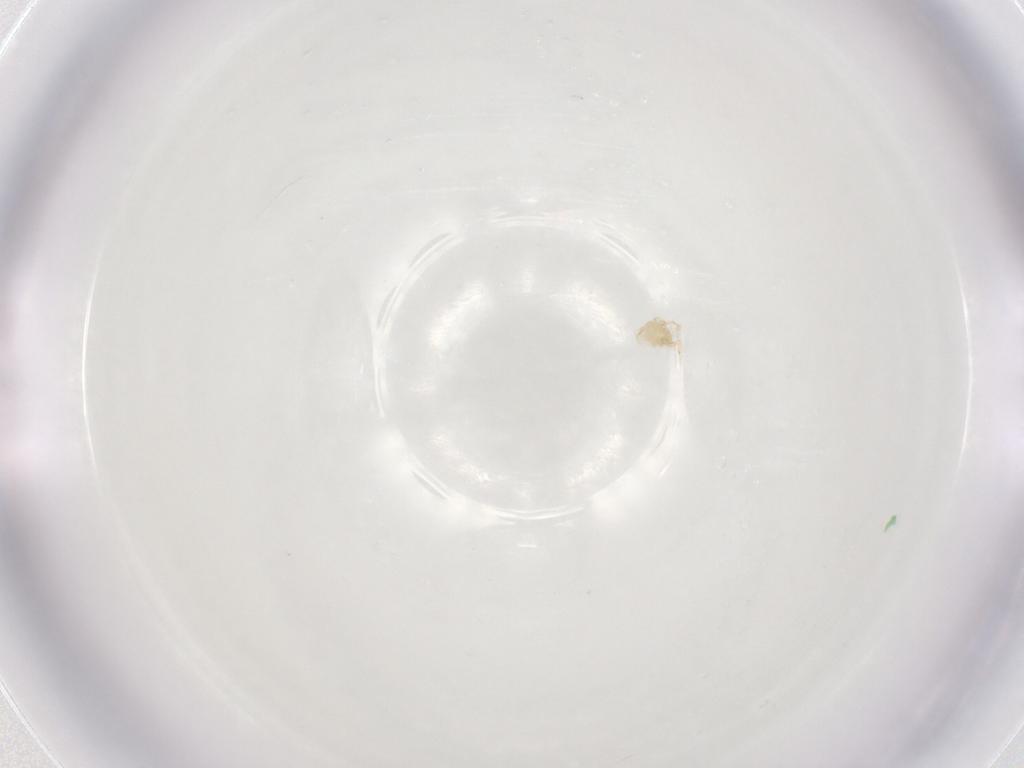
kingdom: Animalia
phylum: Arthropoda
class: Arachnida
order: Mesostigmata
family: Phytoseiidae
